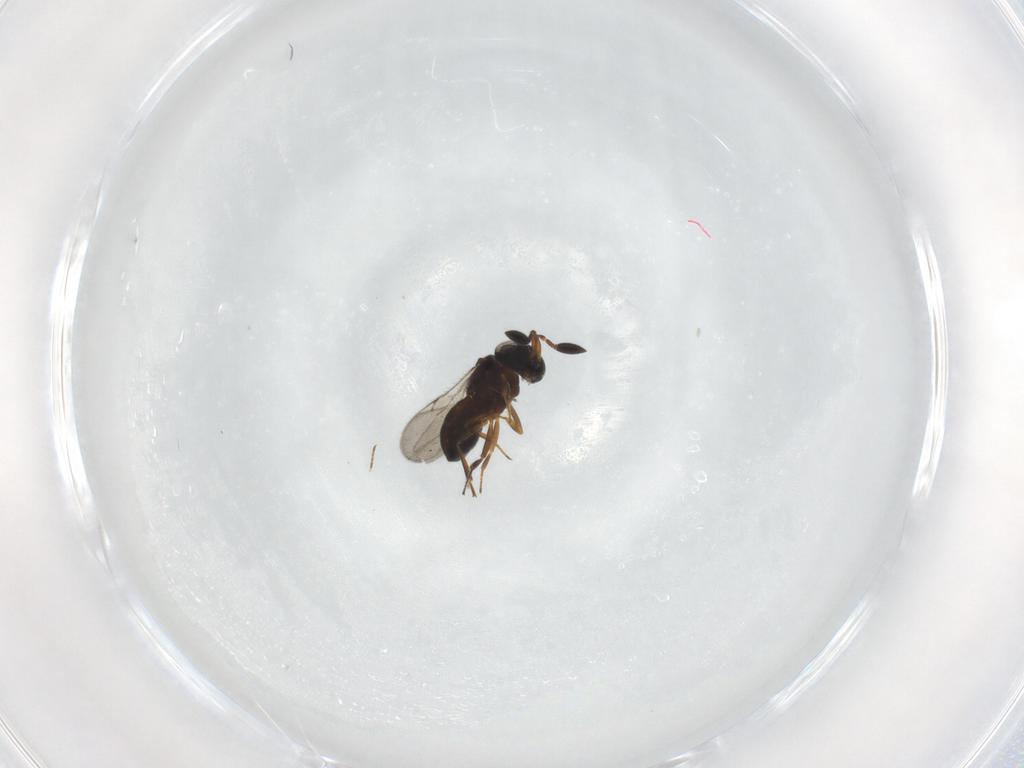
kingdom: Animalia
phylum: Arthropoda
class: Insecta
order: Hymenoptera
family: Scelionidae
